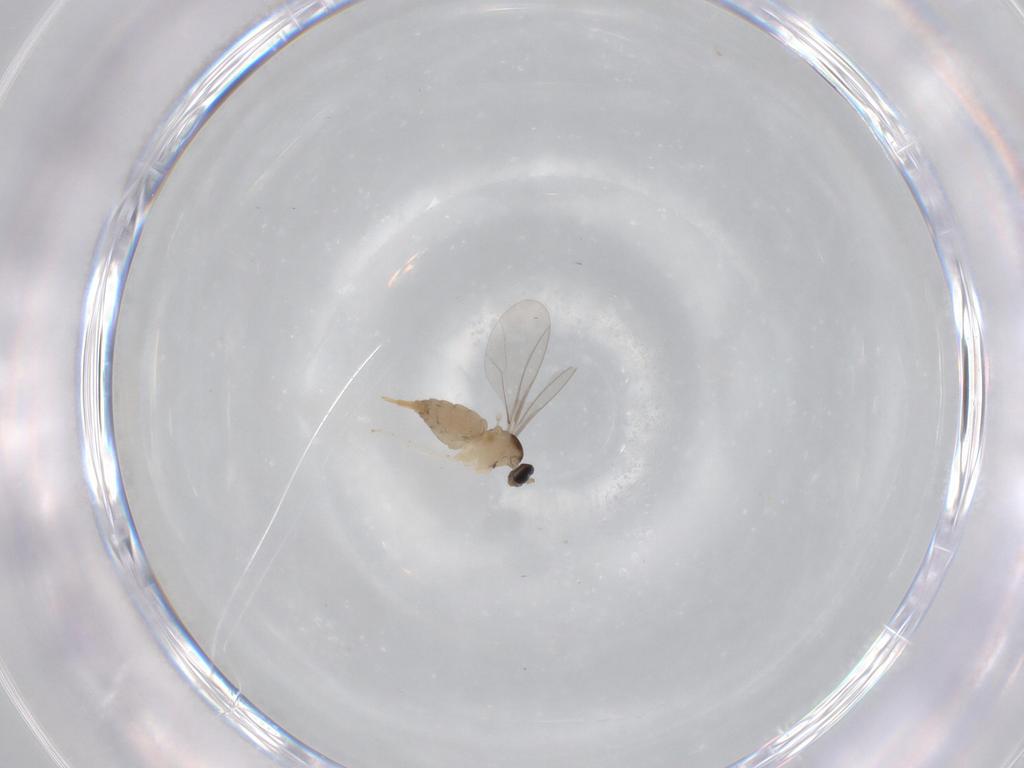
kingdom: Animalia
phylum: Arthropoda
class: Insecta
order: Diptera
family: Cecidomyiidae
